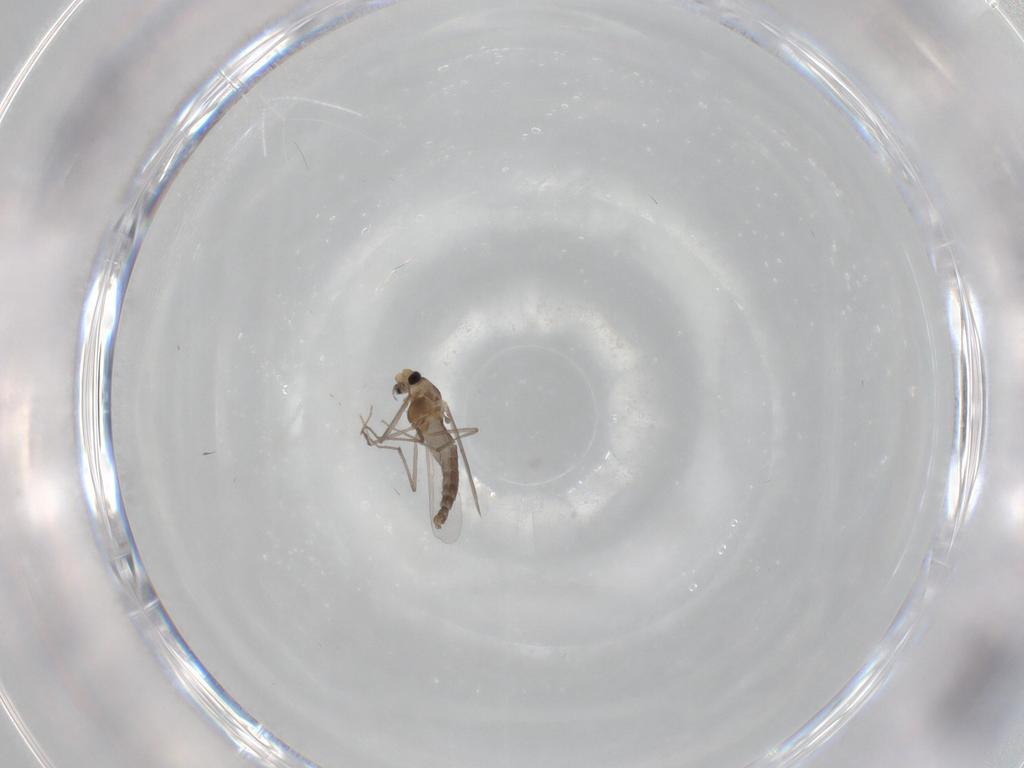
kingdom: Animalia
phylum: Arthropoda
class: Insecta
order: Diptera
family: Chironomidae
